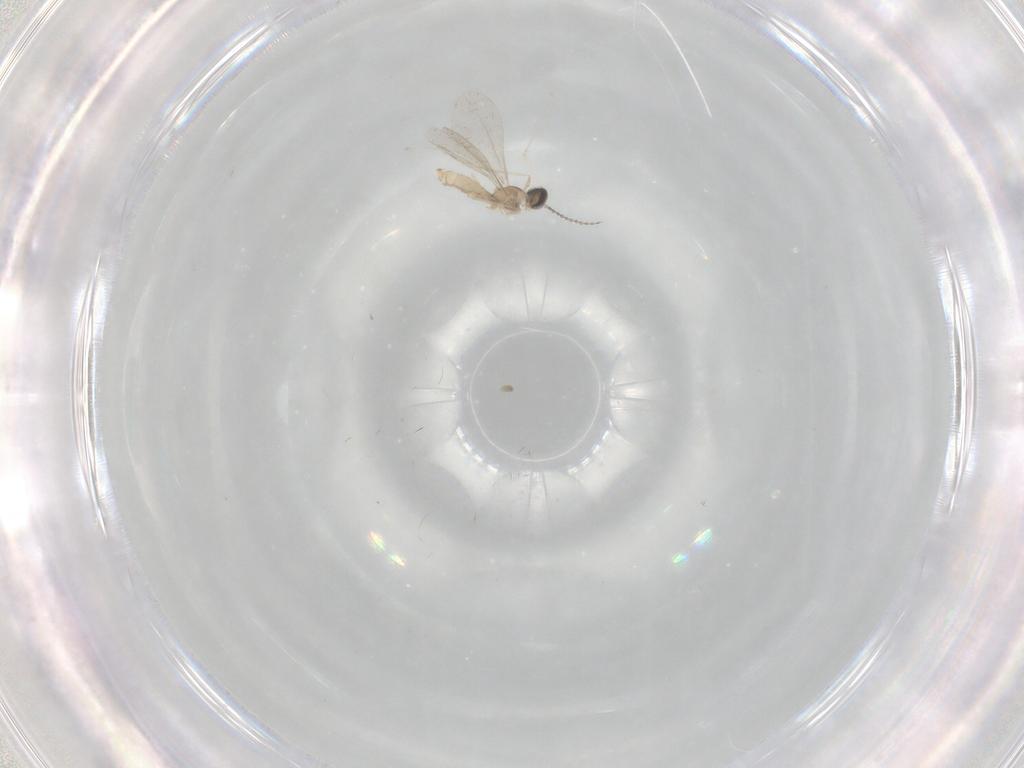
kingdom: Animalia
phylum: Arthropoda
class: Insecta
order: Diptera
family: Cecidomyiidae
